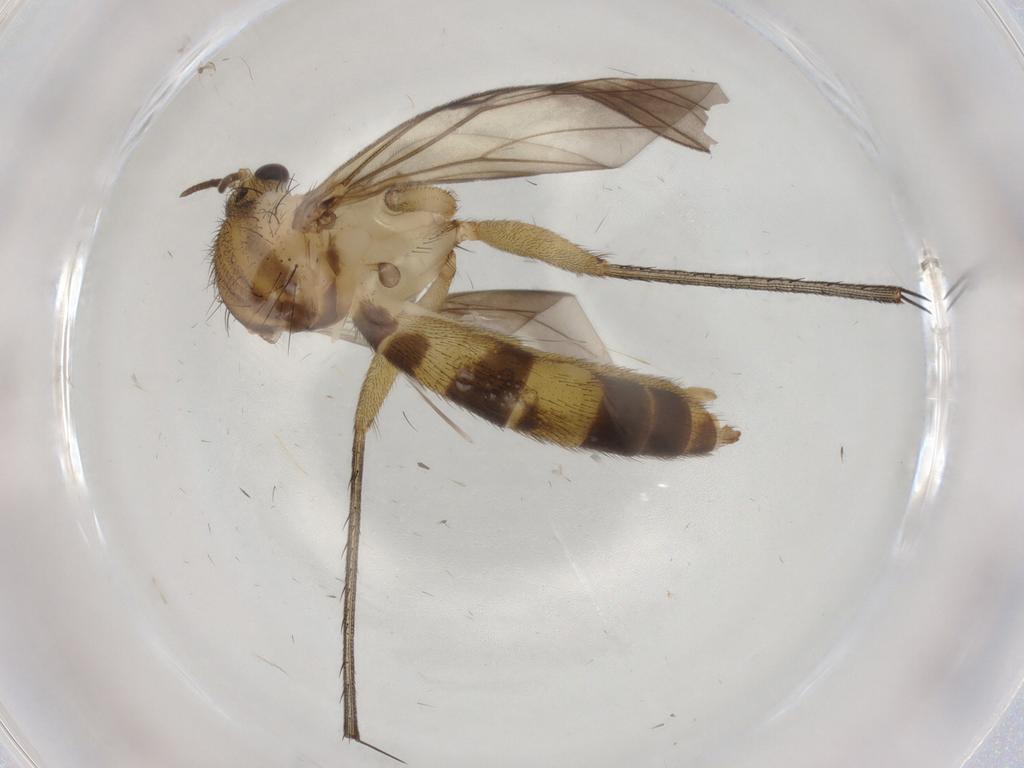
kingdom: Animalia
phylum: Arthropoda
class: Insecta
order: Diptera
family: Mycetophilidae
